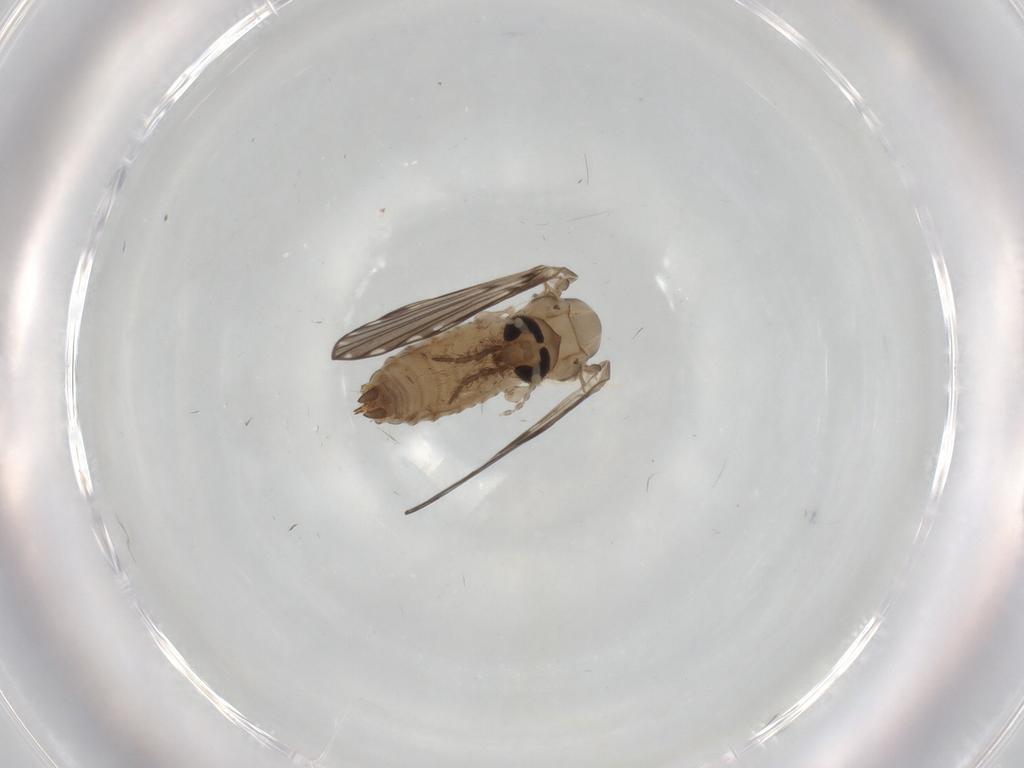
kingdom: Animalia
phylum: Arthropoda
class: Insecta
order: Diptera
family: Psychodidae
